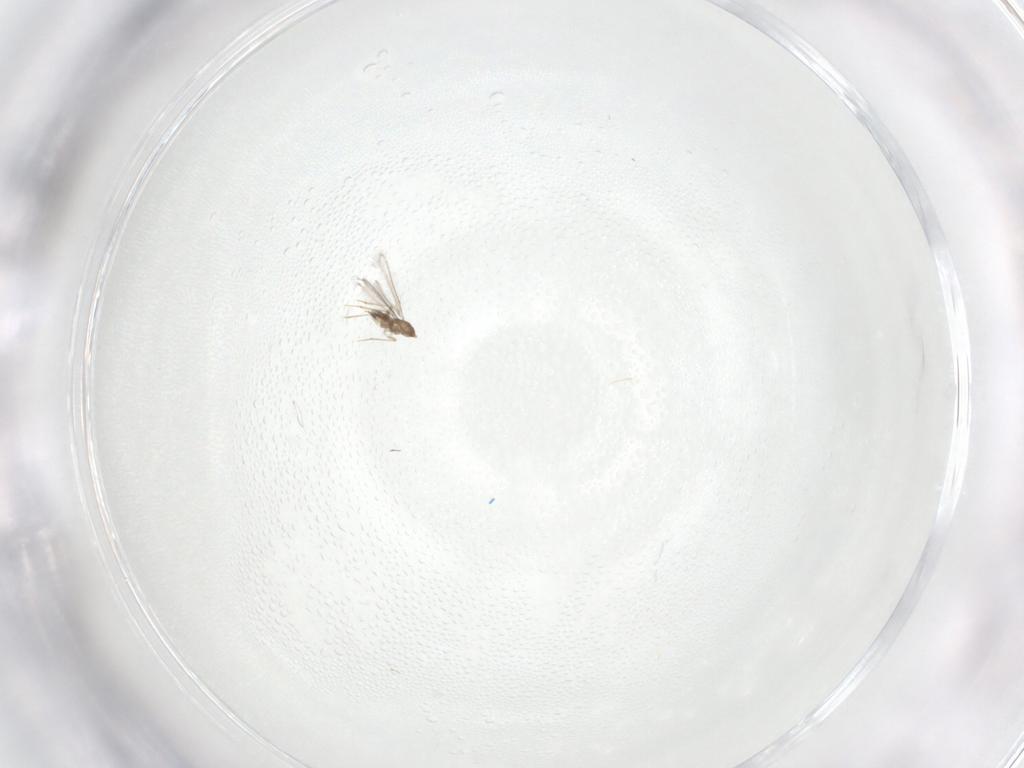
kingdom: Animalia
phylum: Arthropoda
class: Insecta
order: Hymenoptera
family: Mymaridae
